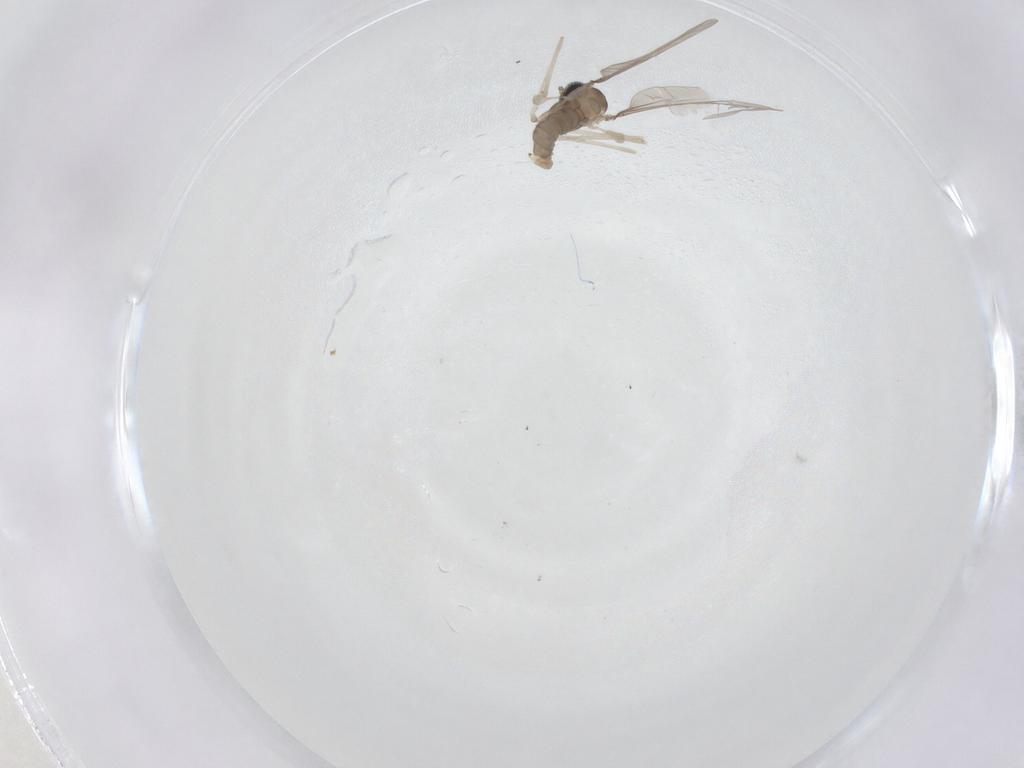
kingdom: Animalia
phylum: Arthropoda
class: Insecta
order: Diptera
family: Cecidomyiidae
